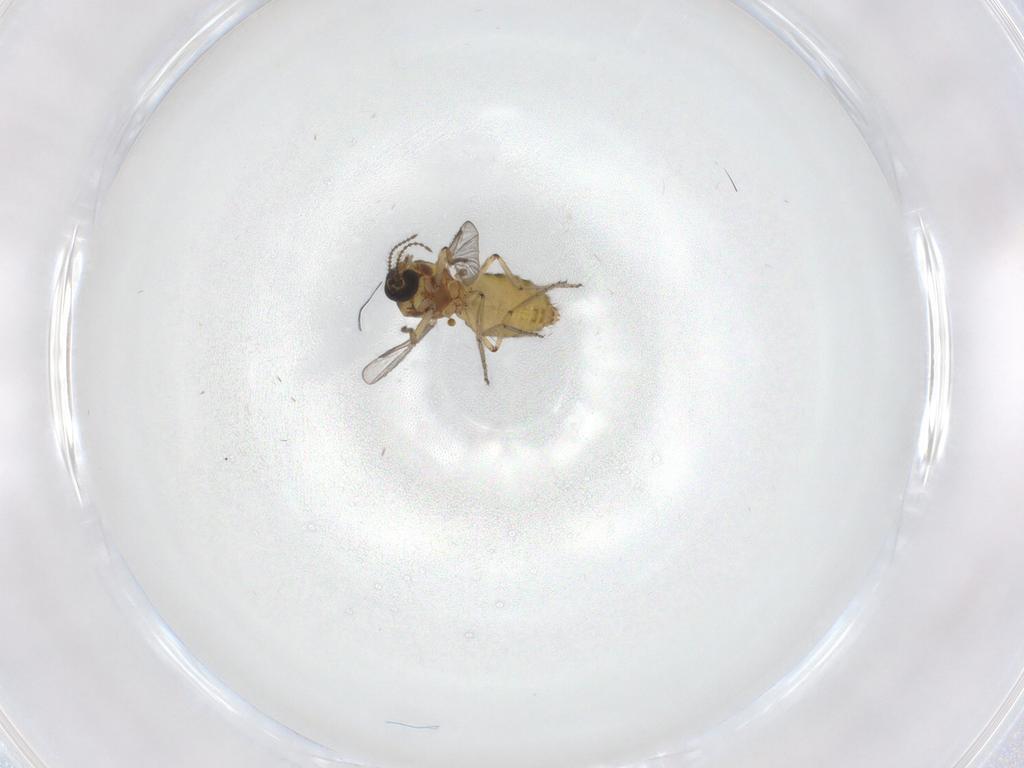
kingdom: Animalia
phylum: Arthropoda
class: Insecta
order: Diptera
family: Ceratopogonidae
